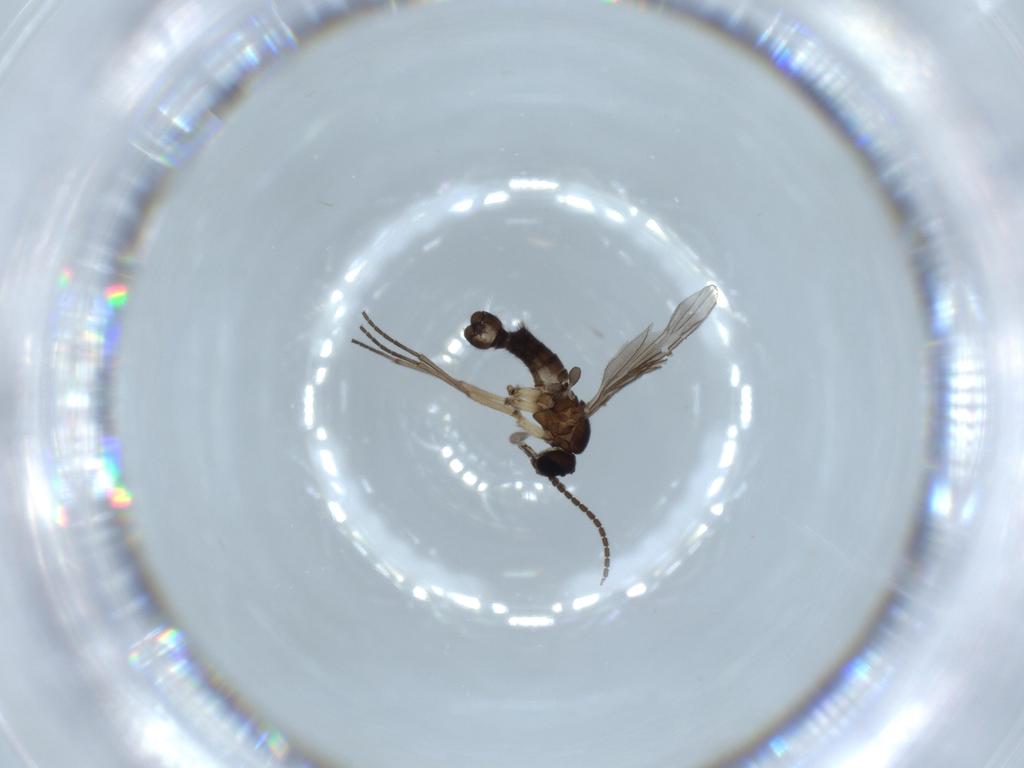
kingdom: Animalia
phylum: Arthropoda
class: Insecta
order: Diptera
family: Sciaridae
